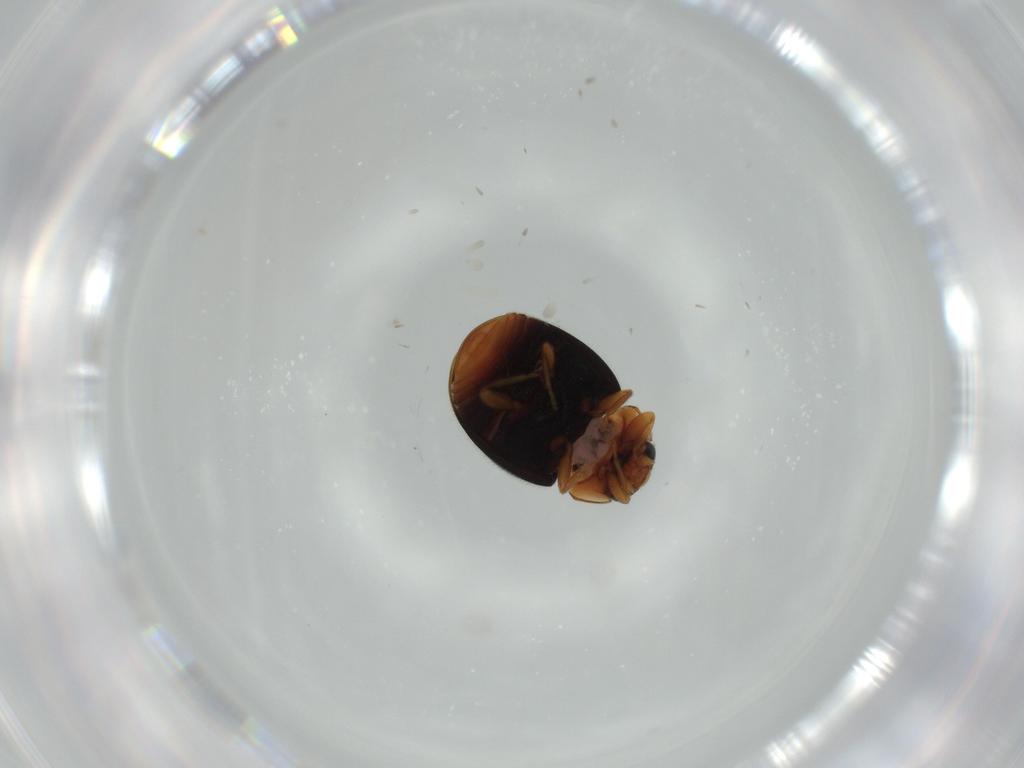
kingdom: Animalia
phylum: Arthropoda
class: Insecta
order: Coleoptera
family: Coccinellidae
